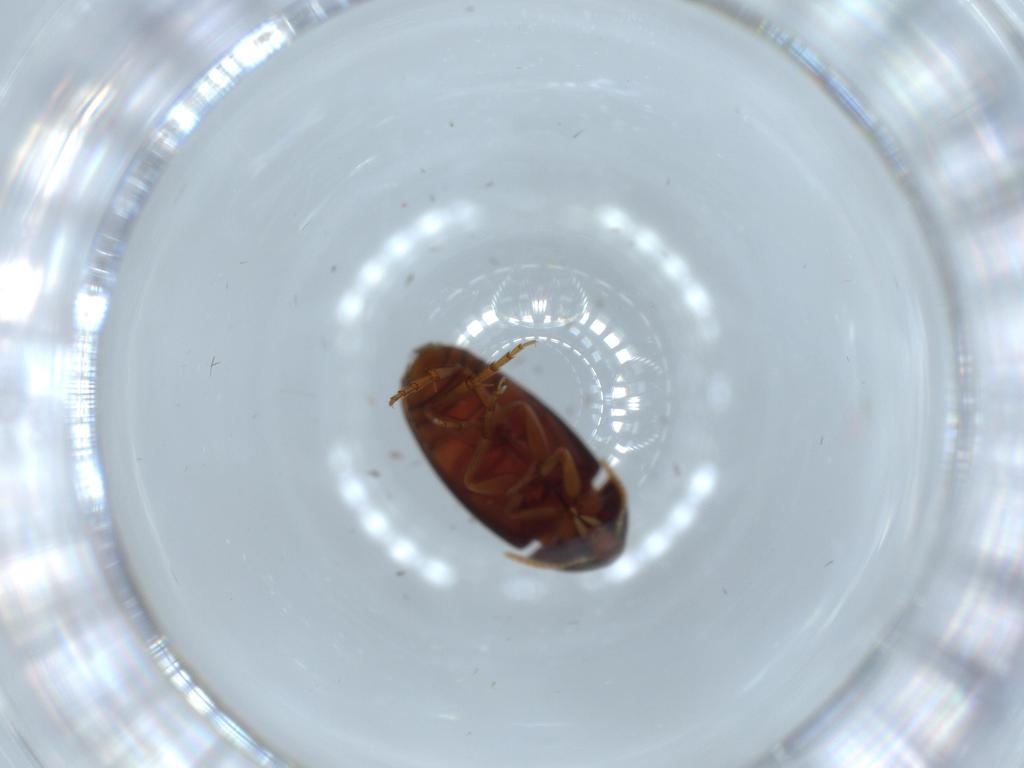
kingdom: Animalia
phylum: Arthropoda
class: Insecta
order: Coleoptera
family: Scraptiidae
